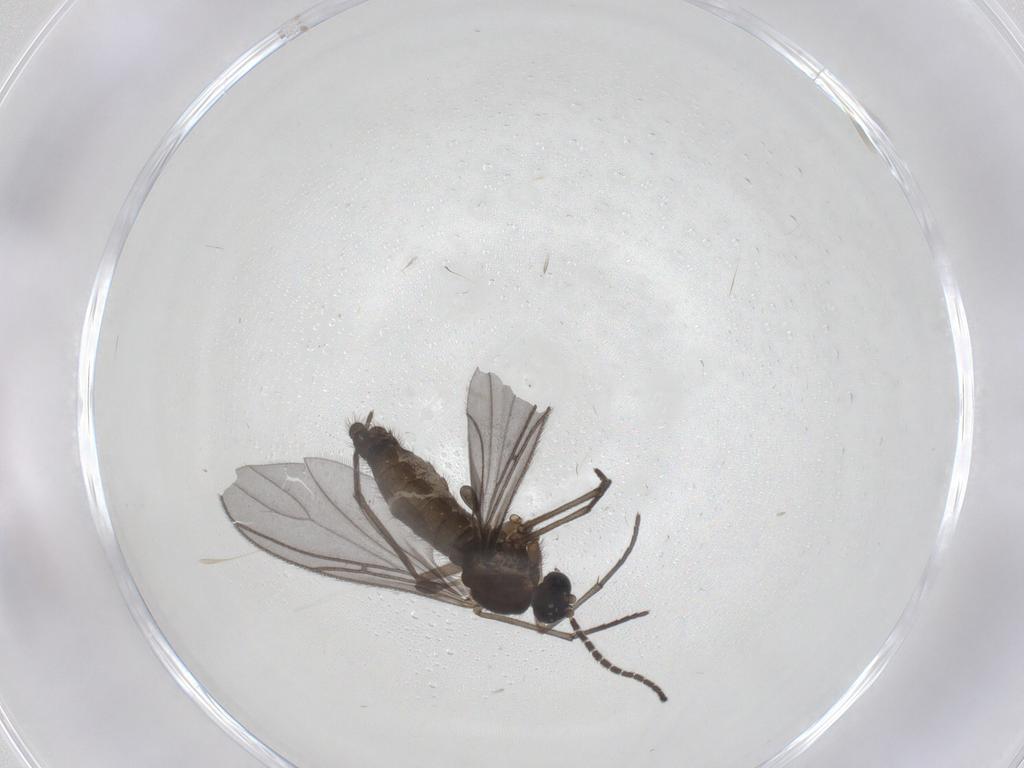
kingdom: Animalia
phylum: Arthropoda
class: Insecta
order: Diptera
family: Sciaridae
